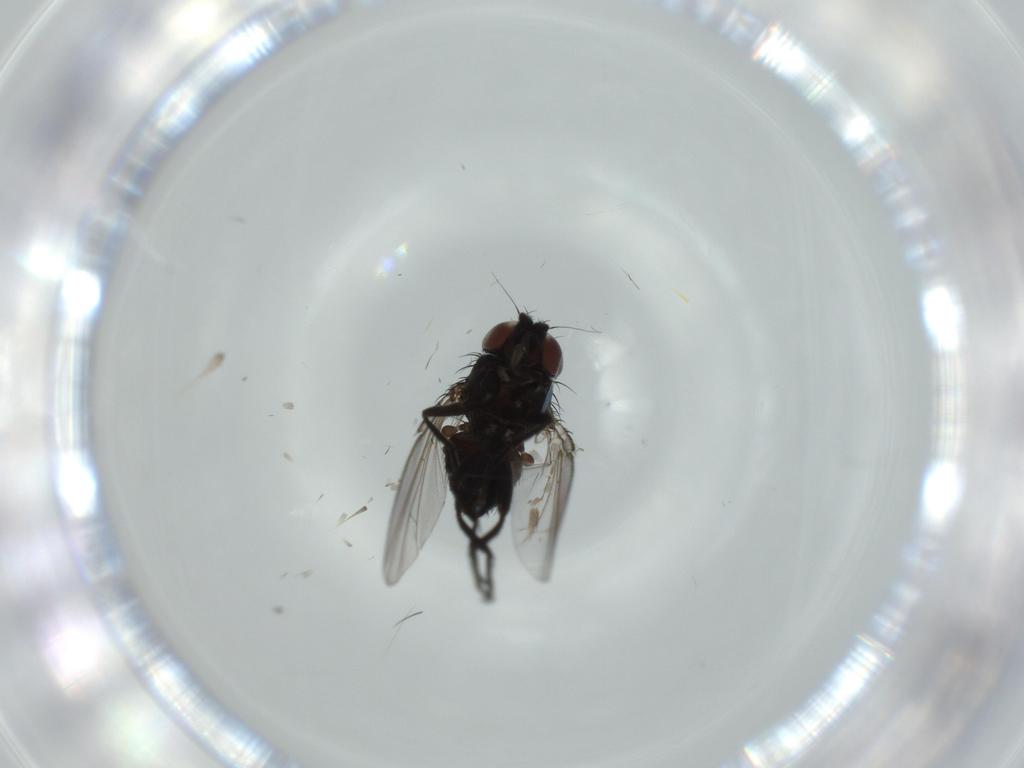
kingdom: Animalia
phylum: Arthropoda
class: Insecta
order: Diptera
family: Milichiidae
